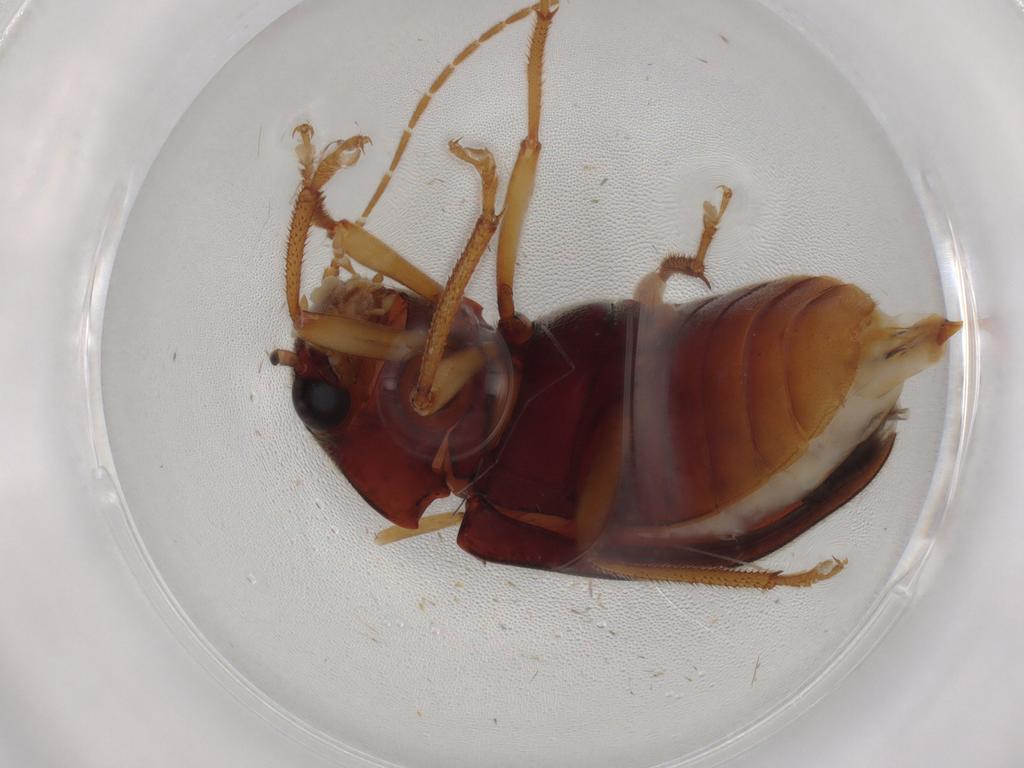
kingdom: Animalia
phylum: Arthropoda
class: Insecta
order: Coleoptera
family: Ptilodactylidae
